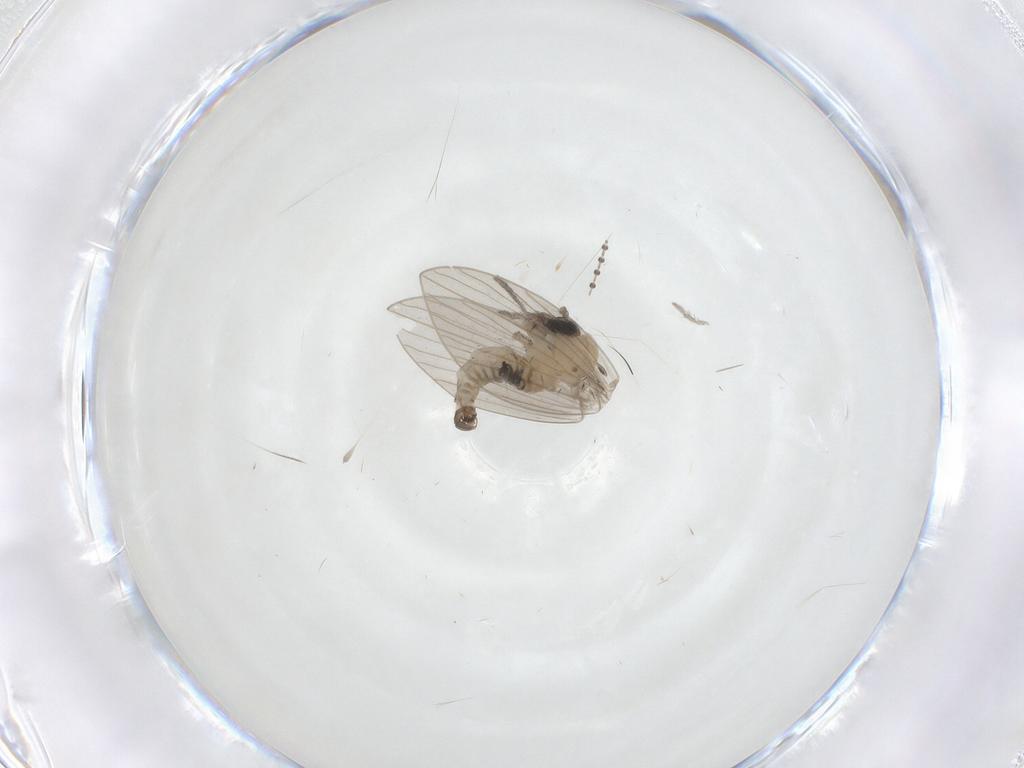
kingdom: Animalia
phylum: Arthropoda
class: Insecta
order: Diptera
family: Psychodidae
